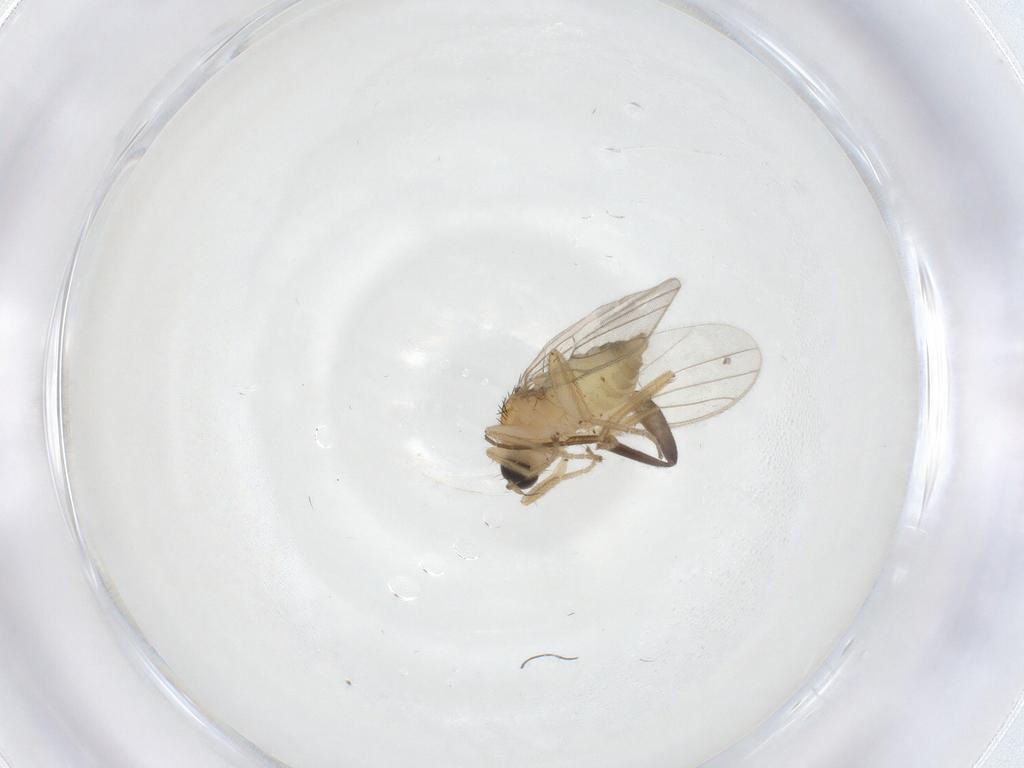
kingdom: Animalia
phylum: Arthropoda
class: Insecta
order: Diptera
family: Hybotidae
